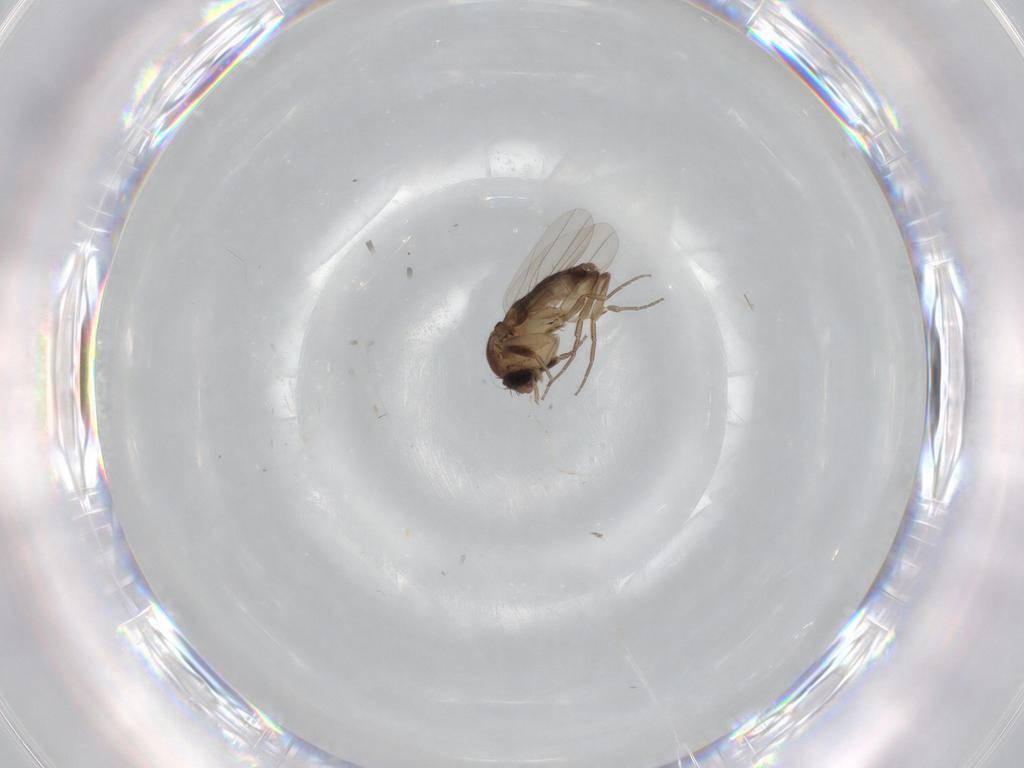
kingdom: Animalia
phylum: Arthropoda
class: Insecta
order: Diptera
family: Phoridae
